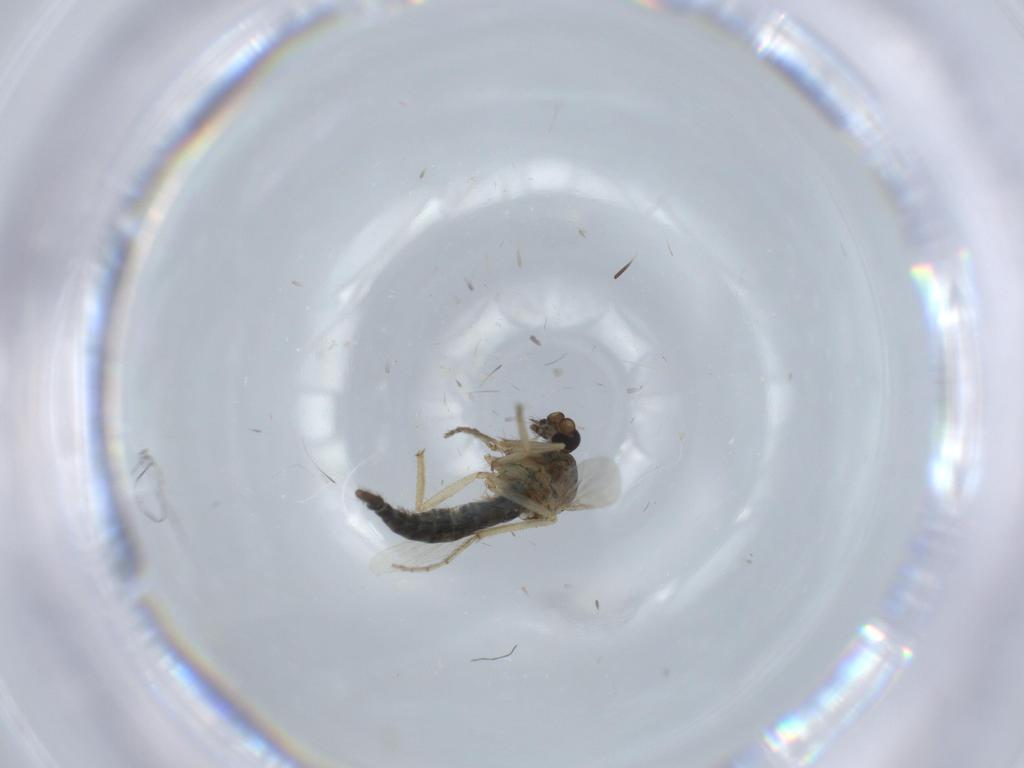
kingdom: Animalia
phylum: Arthropoda
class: Insecta
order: Diptera
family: Ceratopogonidae
